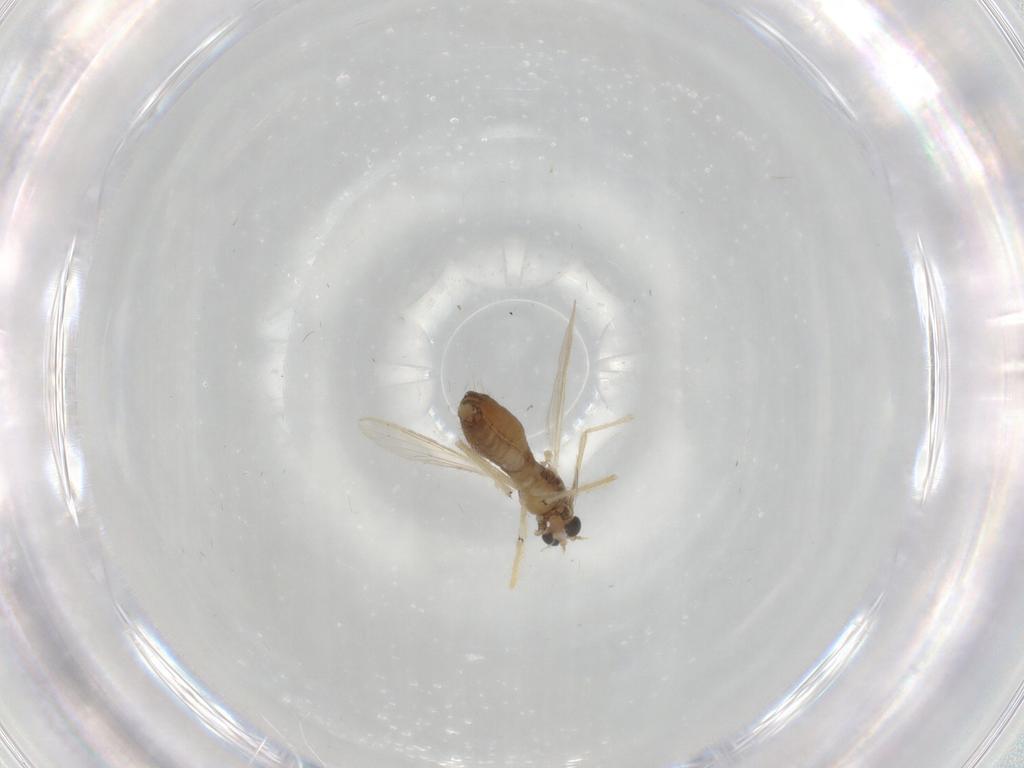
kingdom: Animalia
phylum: Arthropoda
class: Insecta
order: Diptera
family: Chironomidae
